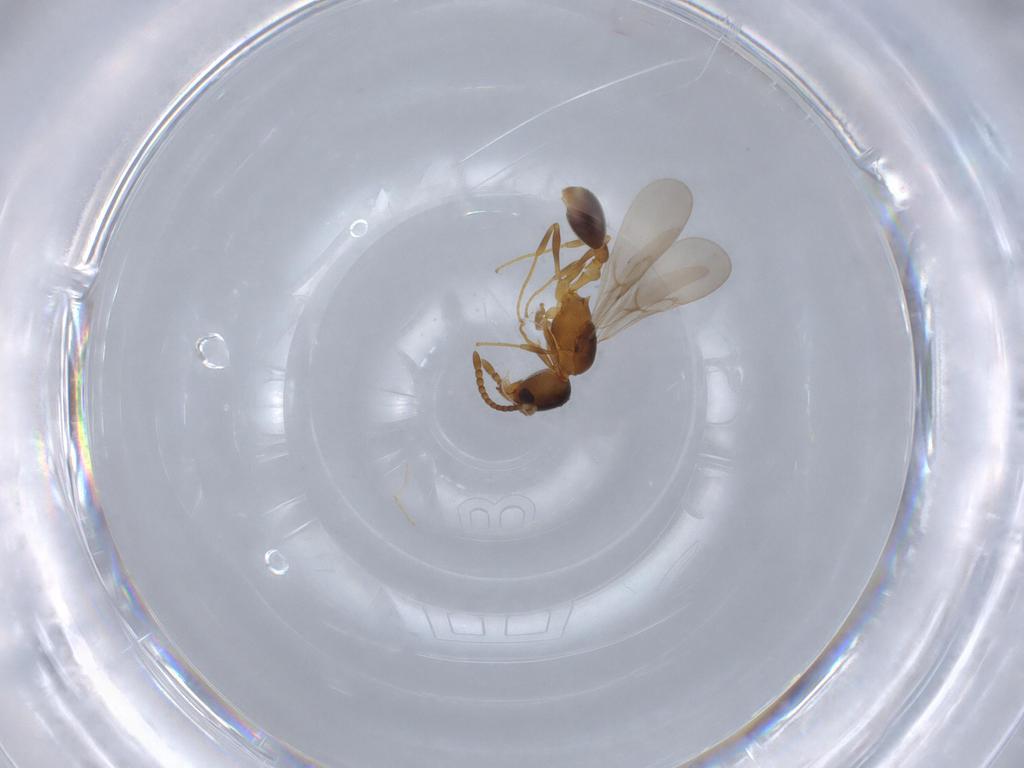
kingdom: Animalia
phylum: Arthropoda
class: Insecta
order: Hymenoptera
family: Formicidae
